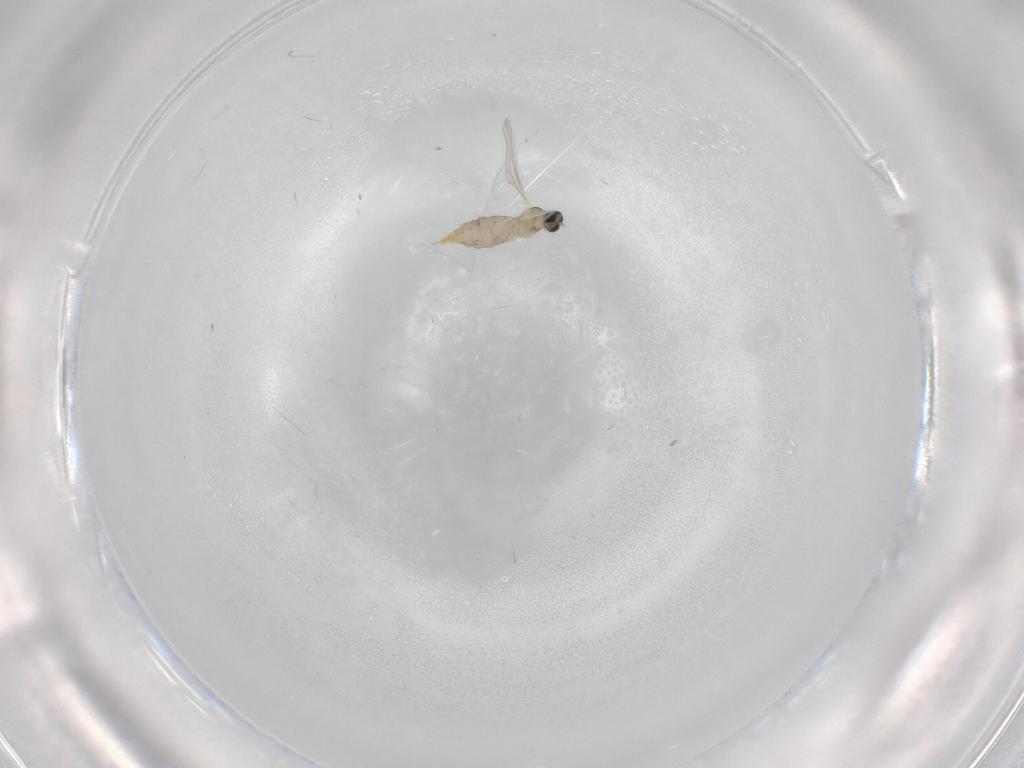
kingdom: Animalia
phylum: Arthropoda
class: Insecta
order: Diptera
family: Cecidomyiidae
